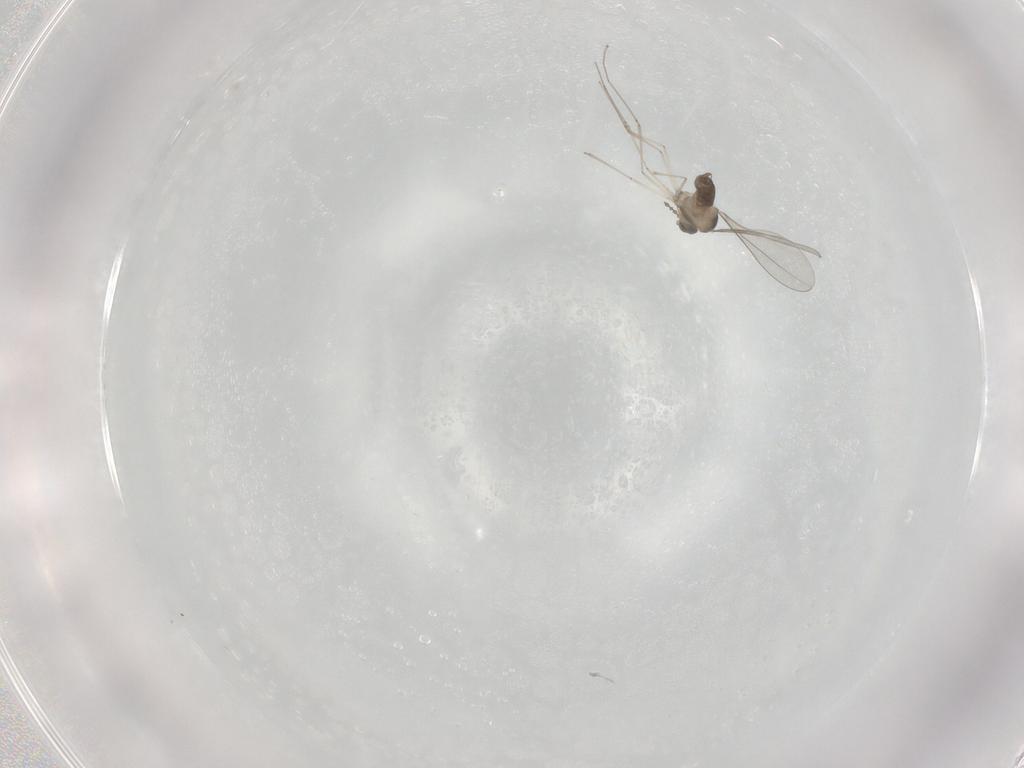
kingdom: Animalia
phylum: Arthropoda
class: Insecta
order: Diptera
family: Cecidomyiidae
